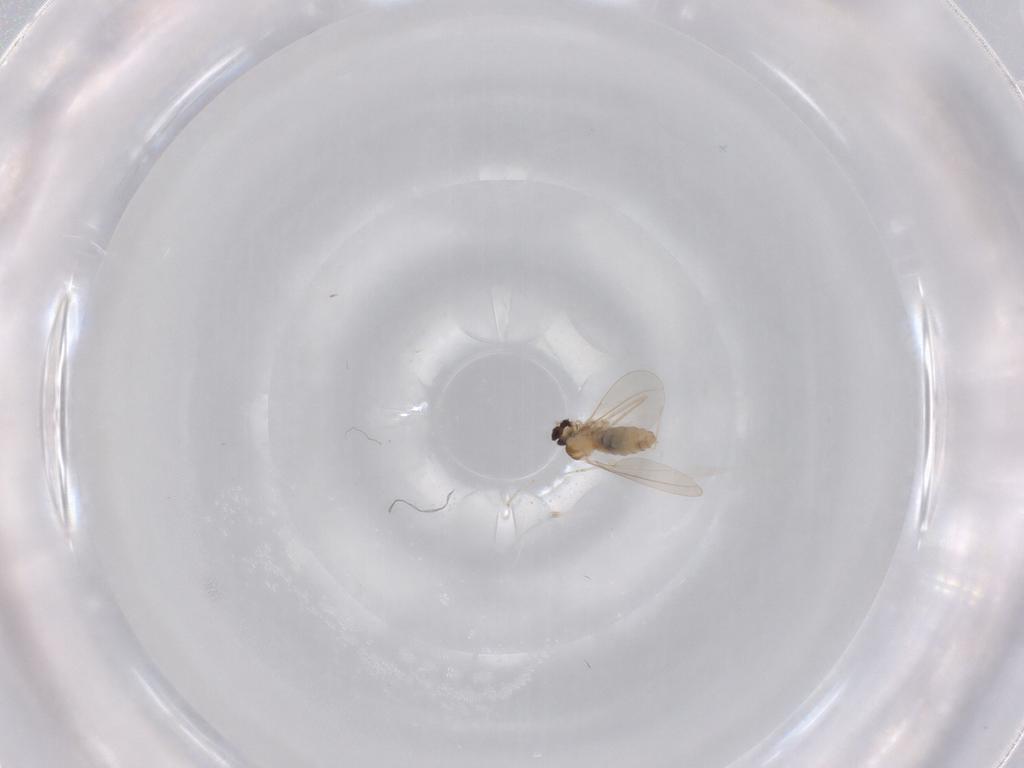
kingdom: Animalia
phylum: Arthropoda
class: Insecta
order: Diptera
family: Cecidomyiidae
